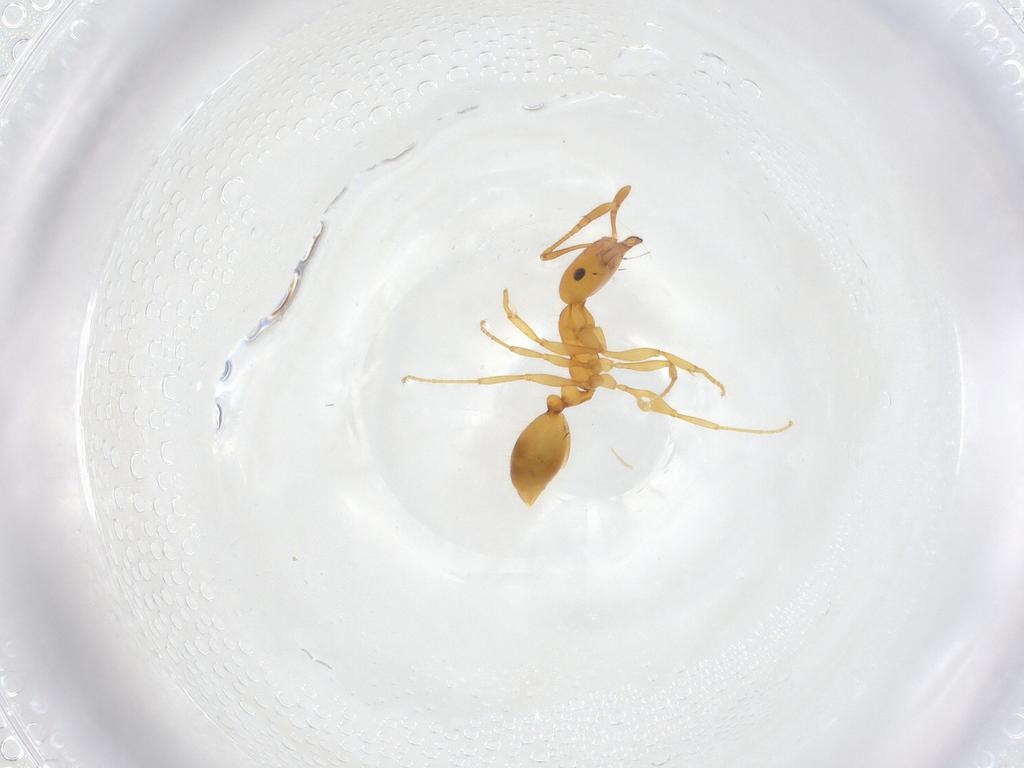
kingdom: Animalia
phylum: Arthropoda
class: Insecta
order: Hymenoptera
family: Formicidae
